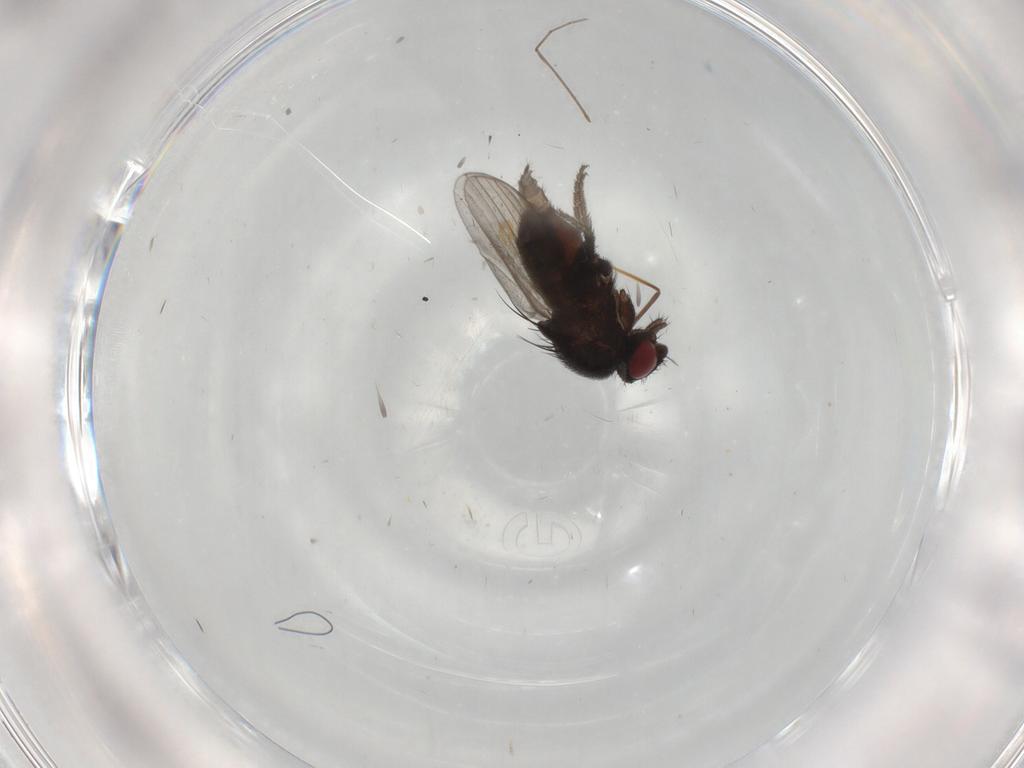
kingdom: Animalia
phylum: Arthropoda
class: Insecta
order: Diptera
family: Milichiidae
